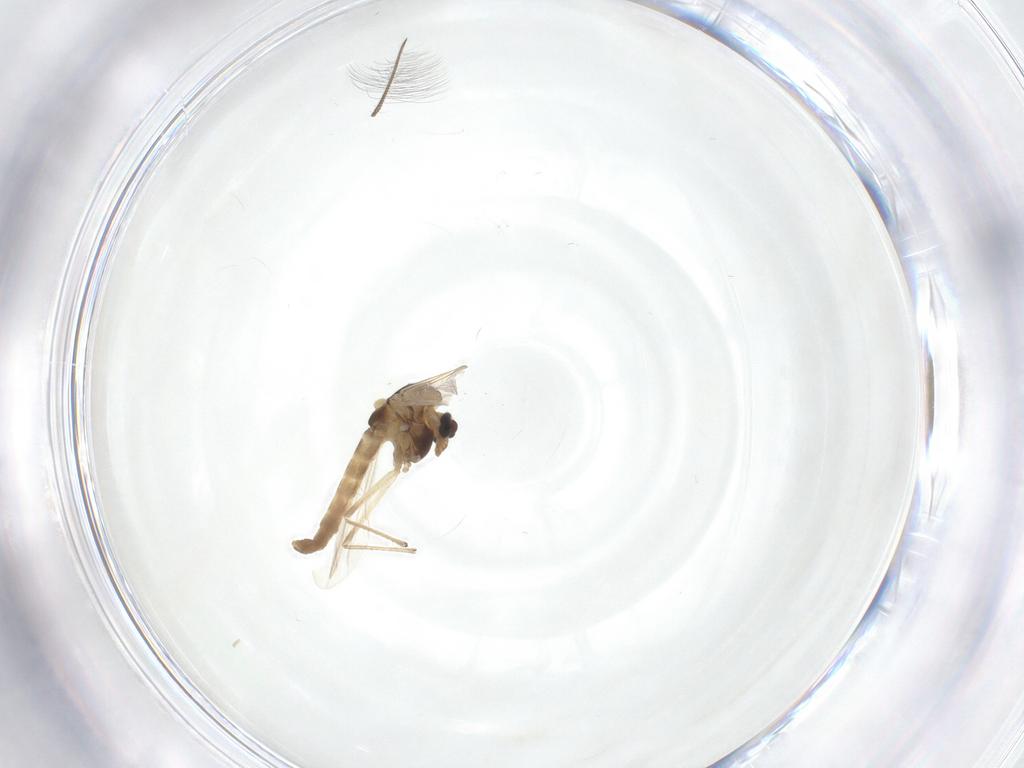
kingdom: Animalia
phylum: Arthropoda
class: Insecta
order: Diptera
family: Chironomidae
